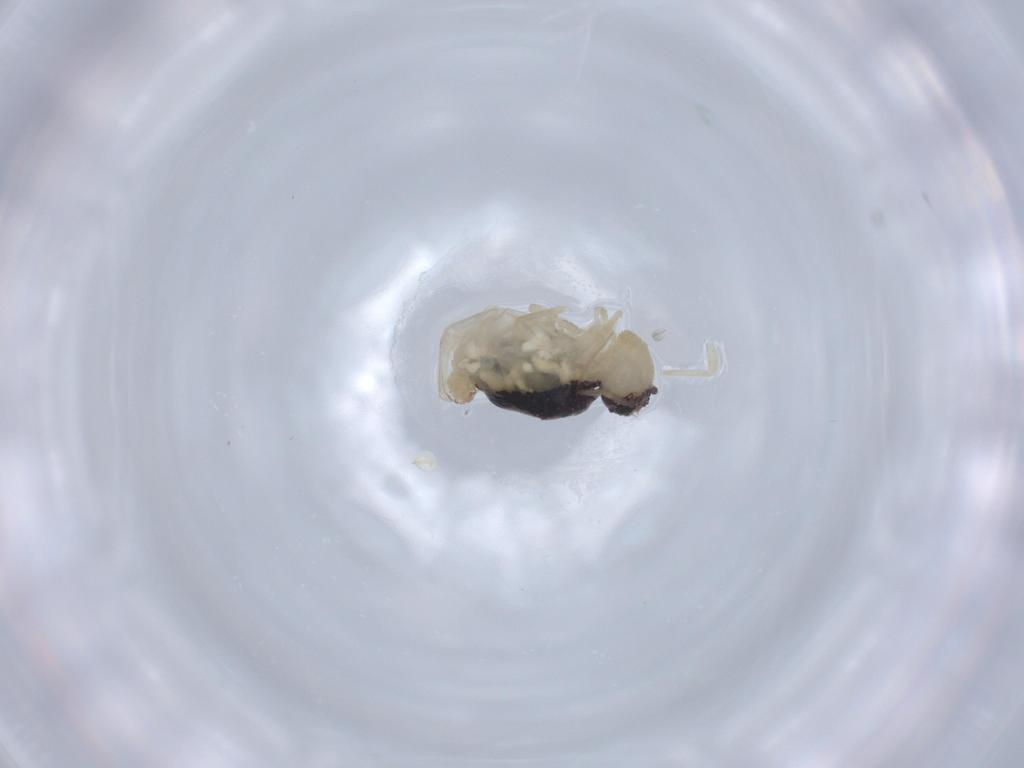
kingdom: Animalia
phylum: Arthropoda
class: Collembola
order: Symphypleona
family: Bourletiellidae
